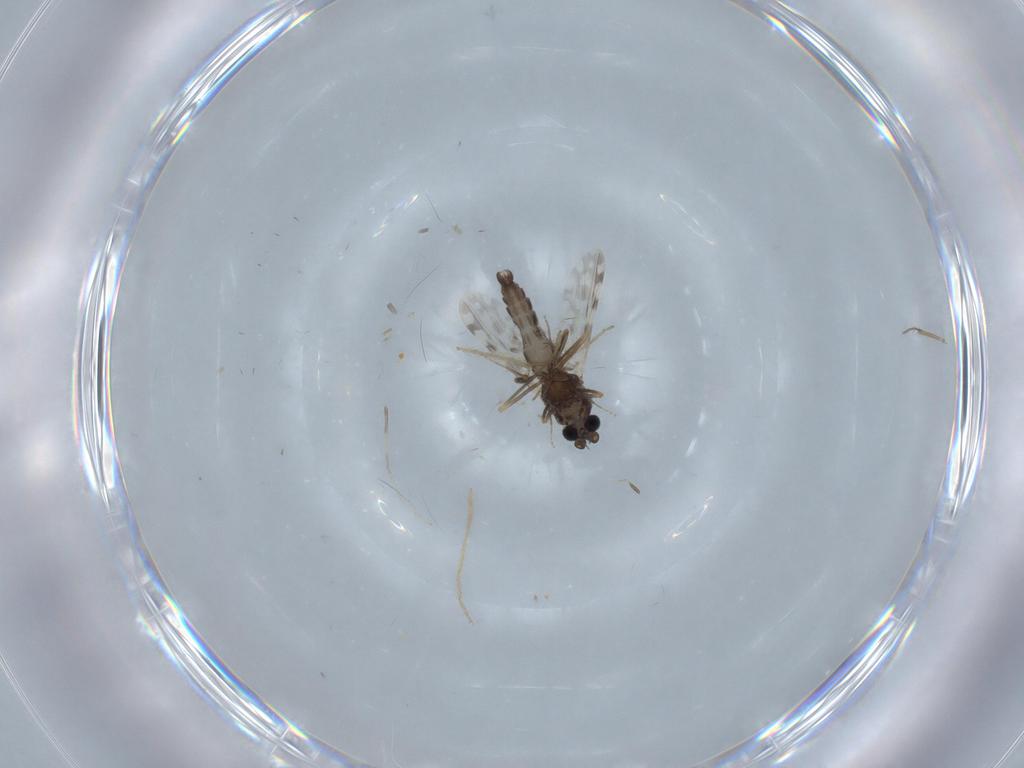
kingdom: Animalia
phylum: Arthropoda
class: Insecta
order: Diptera
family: Ceratopogonidae
